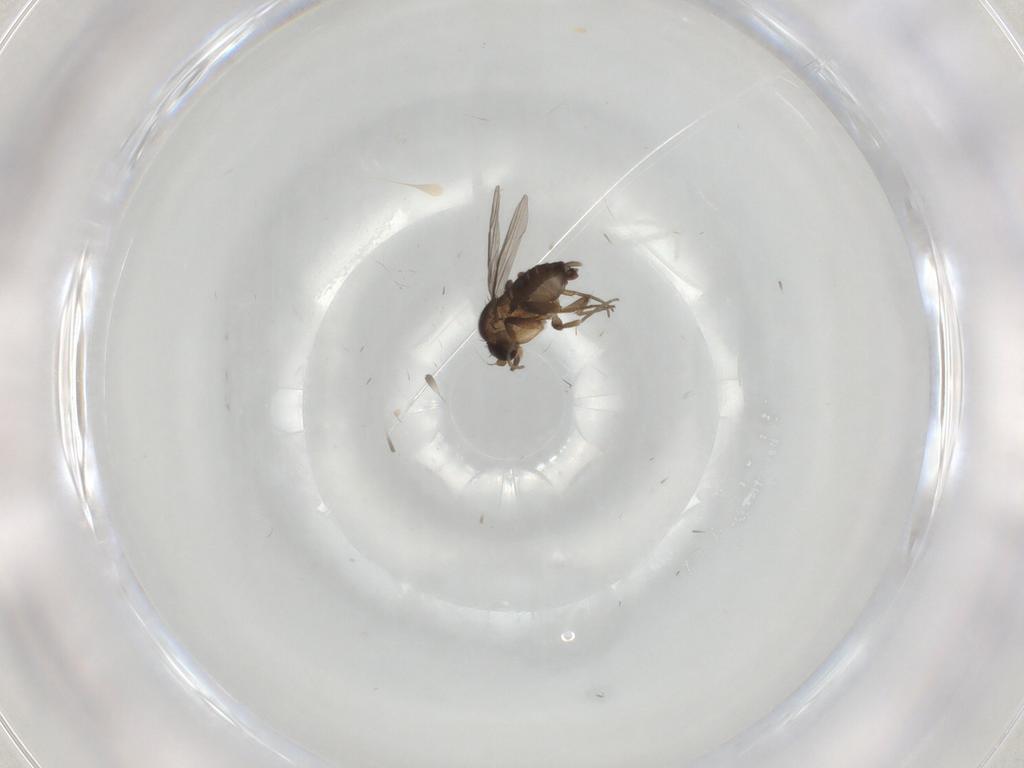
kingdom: Animalia
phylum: Arthropoda
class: Insecta
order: Diptera
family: Phoridae
